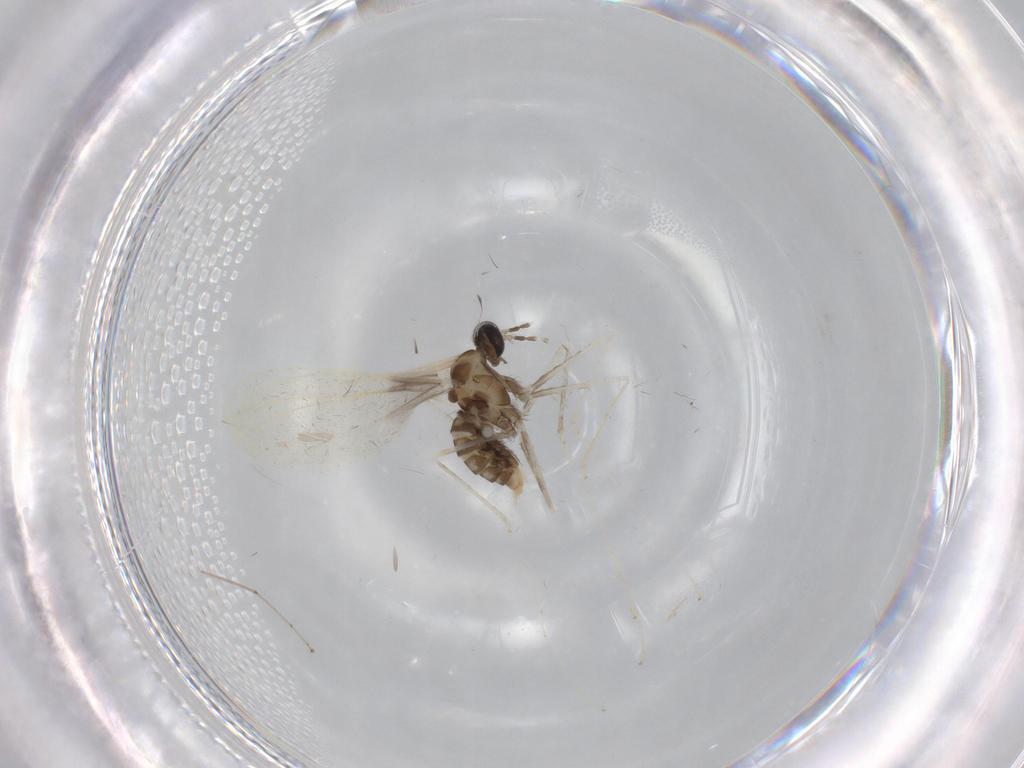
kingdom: Animalia
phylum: Arthropoda
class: Insecta
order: Diptera
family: Cecidomyiidae
